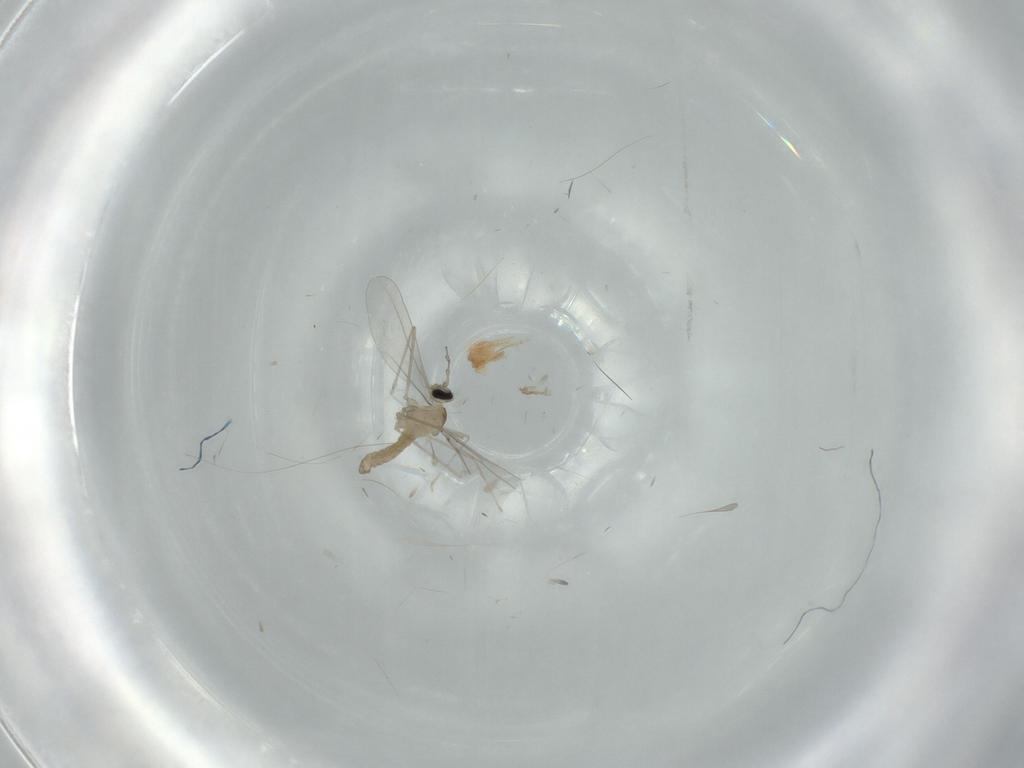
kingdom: Animalia
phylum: Arthropoda
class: Insecta
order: Diptera
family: Cecidomyiidae
